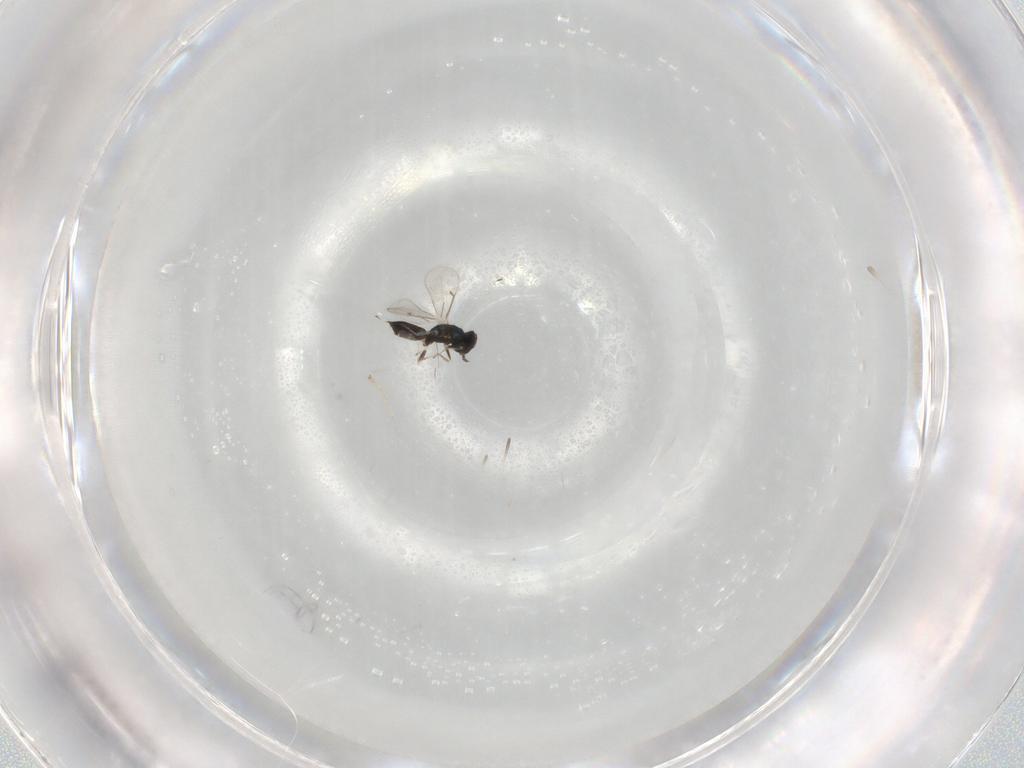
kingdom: Animalia
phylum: Arthropoda
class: Insecta
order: Hymenoptera
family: Eulophidae
